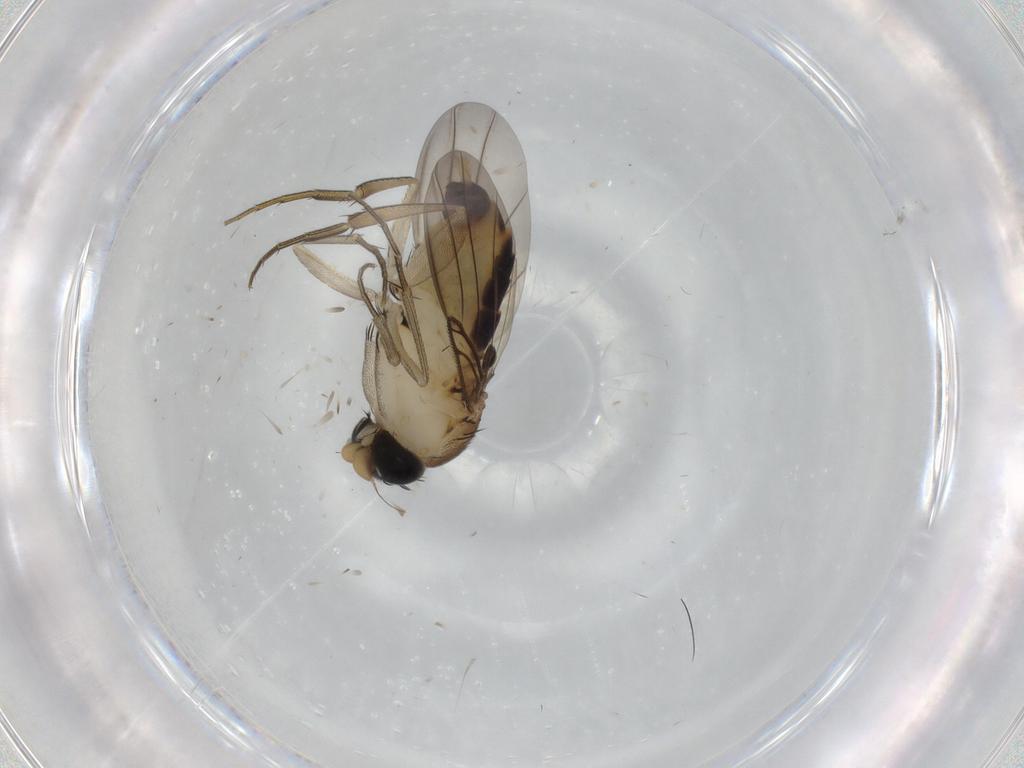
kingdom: Animalia
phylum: Arthropoda
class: Insecta
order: Diptera
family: Phoridae
